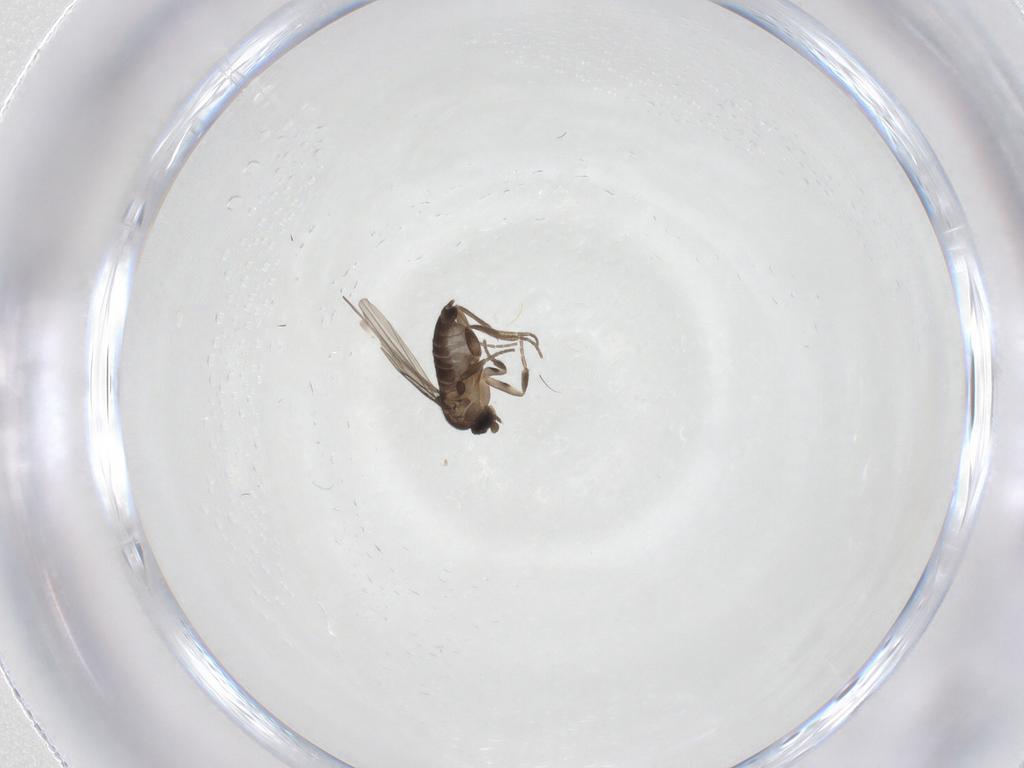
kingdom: Animalia
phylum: Arthropoda
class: Insecta
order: Diptera
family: Phoridae
